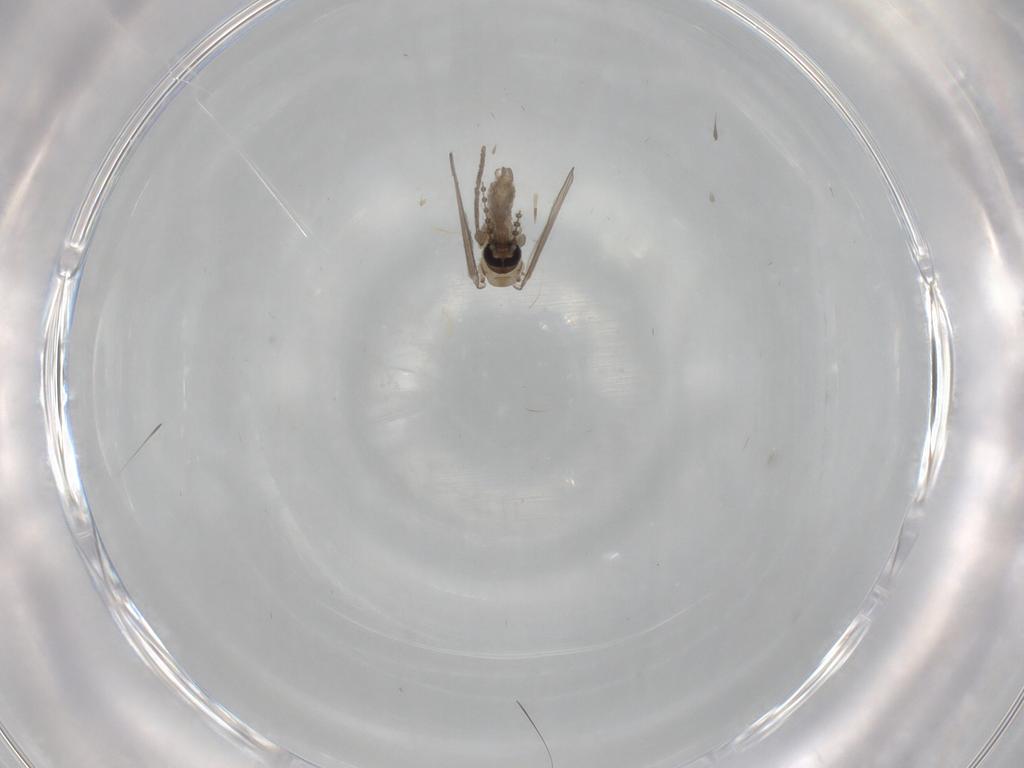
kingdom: Animalia
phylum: Arthropoda
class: Insecta
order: Diptera
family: Psychodidae
